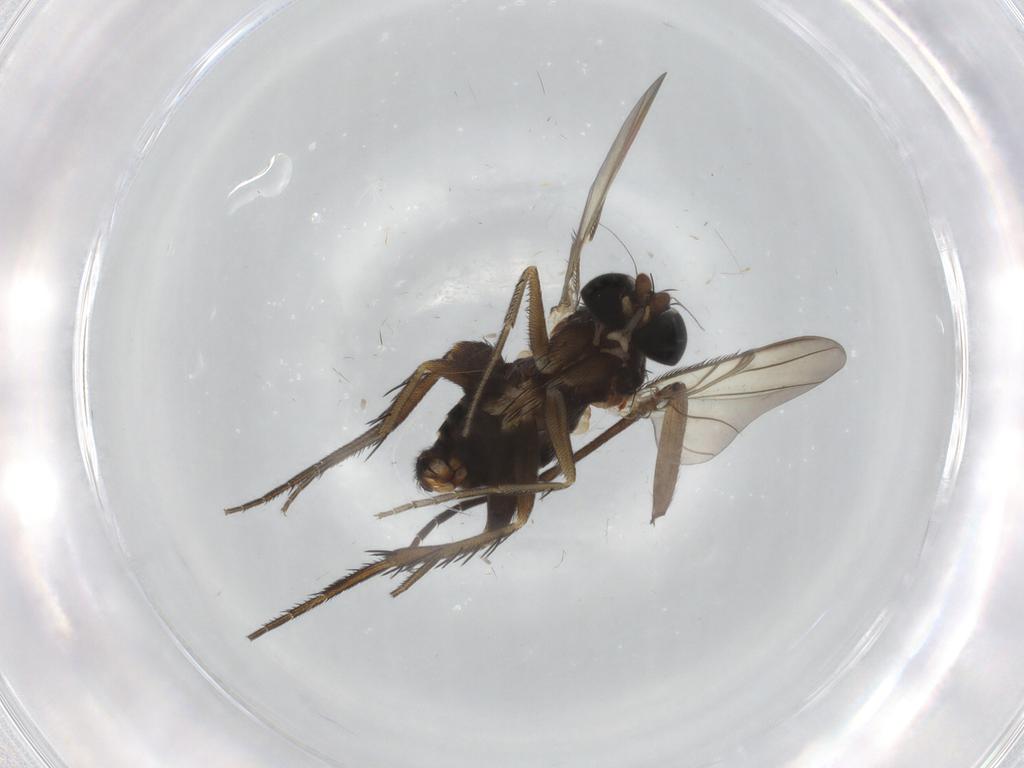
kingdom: Animalia
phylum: Arthropoda
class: Insecta
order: Diptera
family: Phoridae
